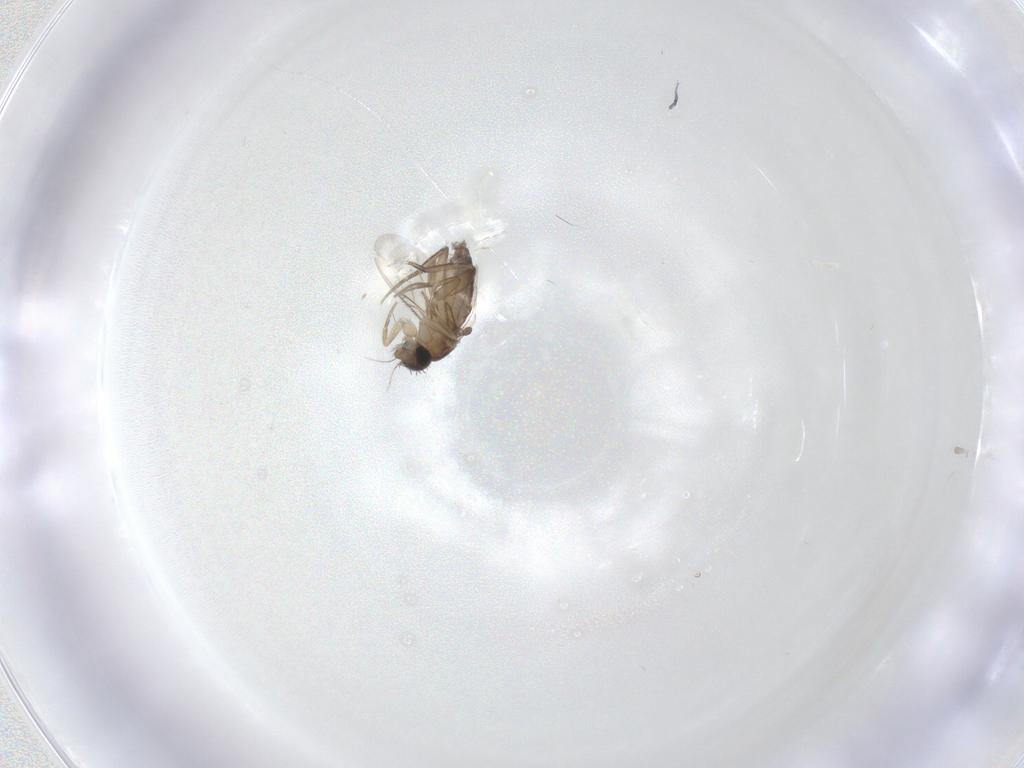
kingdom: Animalia
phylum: Arthropoda
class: Insecta
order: Diptera
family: Phoridae
